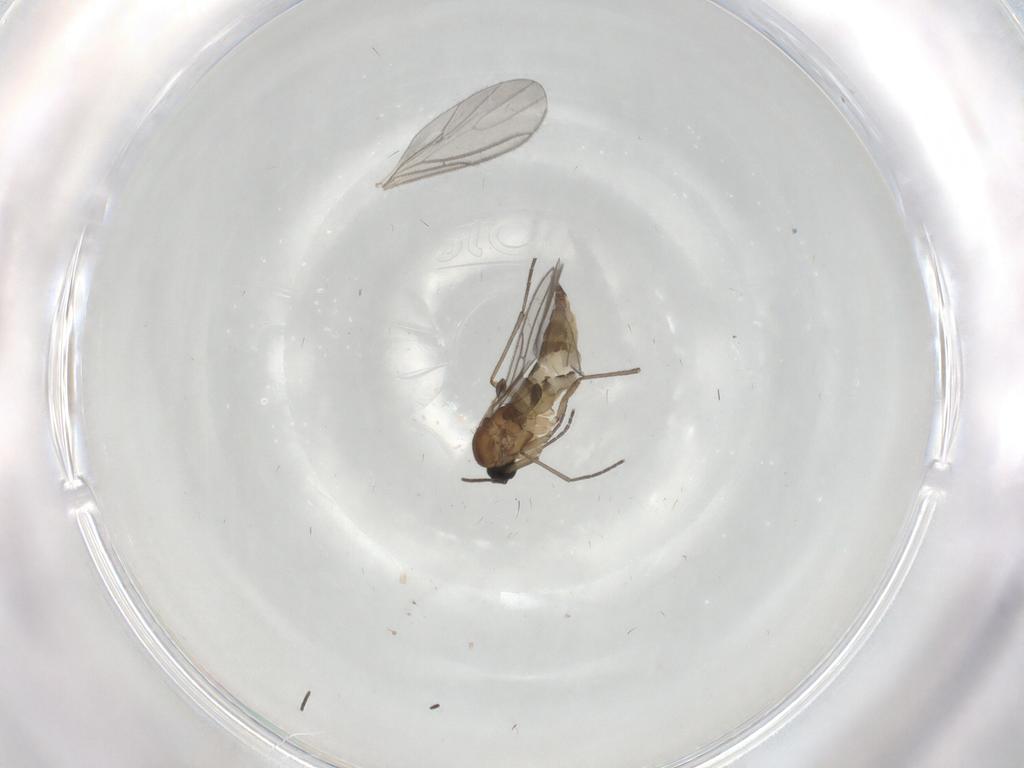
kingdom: Animalia
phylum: Arthropoda
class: Insecta
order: Diptera
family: Sciaridae
